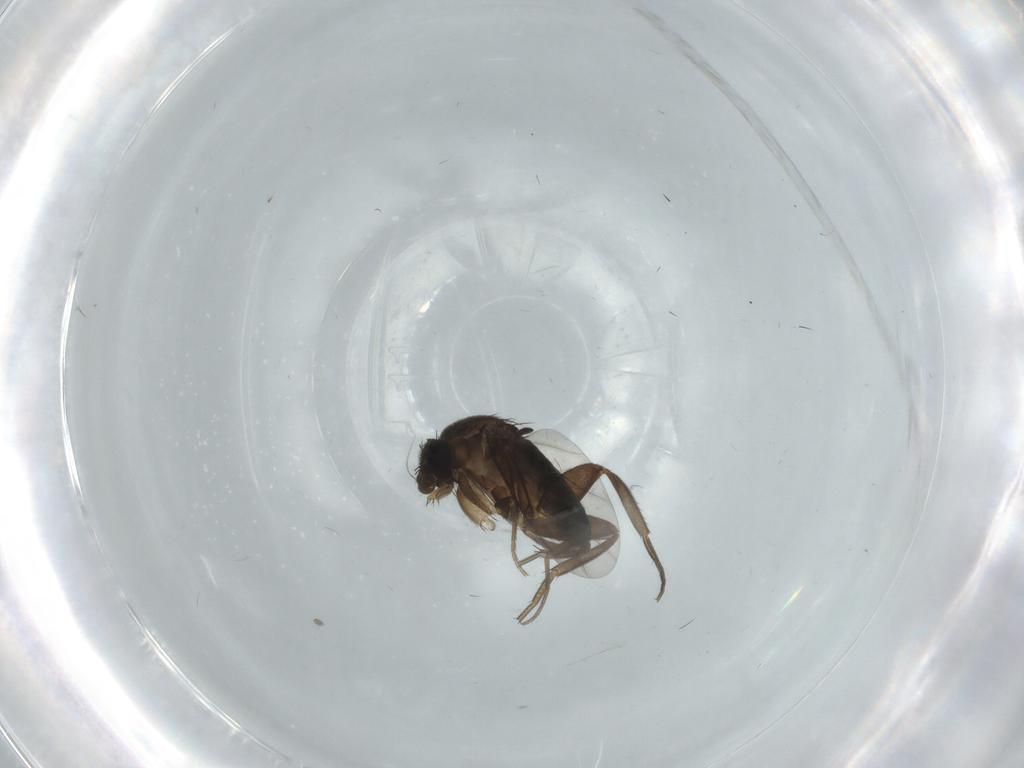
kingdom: Animalia
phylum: Arthropoda
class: Insecta
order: Diptera
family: Phoridae
